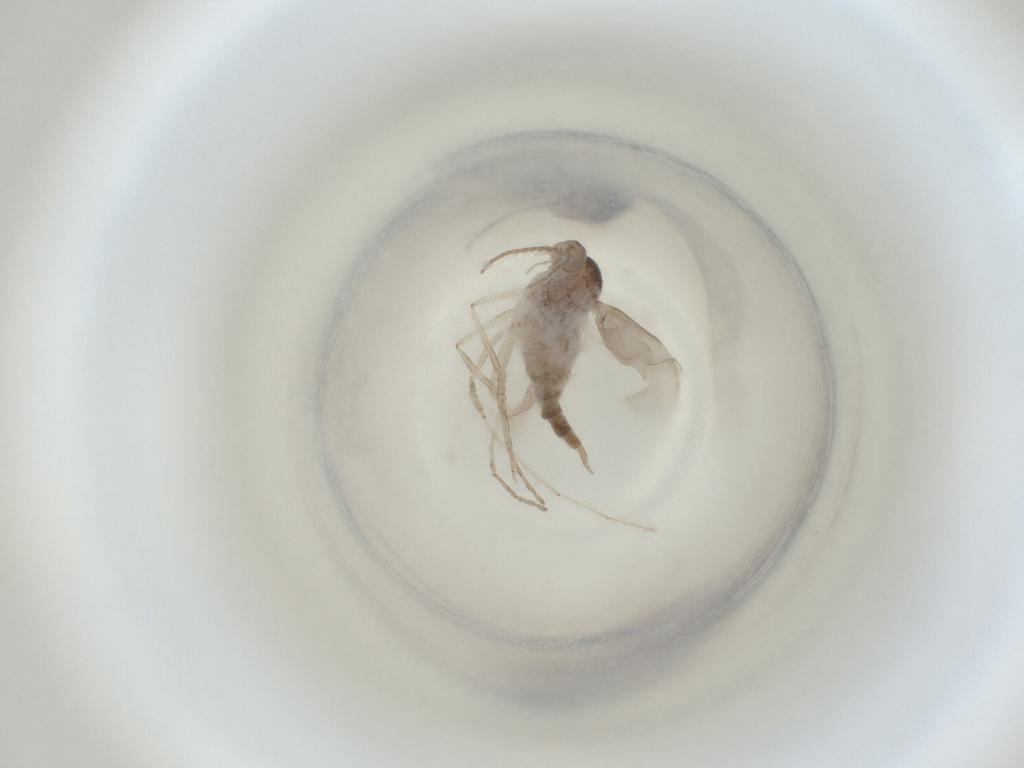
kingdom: Animalia
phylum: Arthropoda
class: Insecta
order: Diptera
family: Cecidomyiidae
